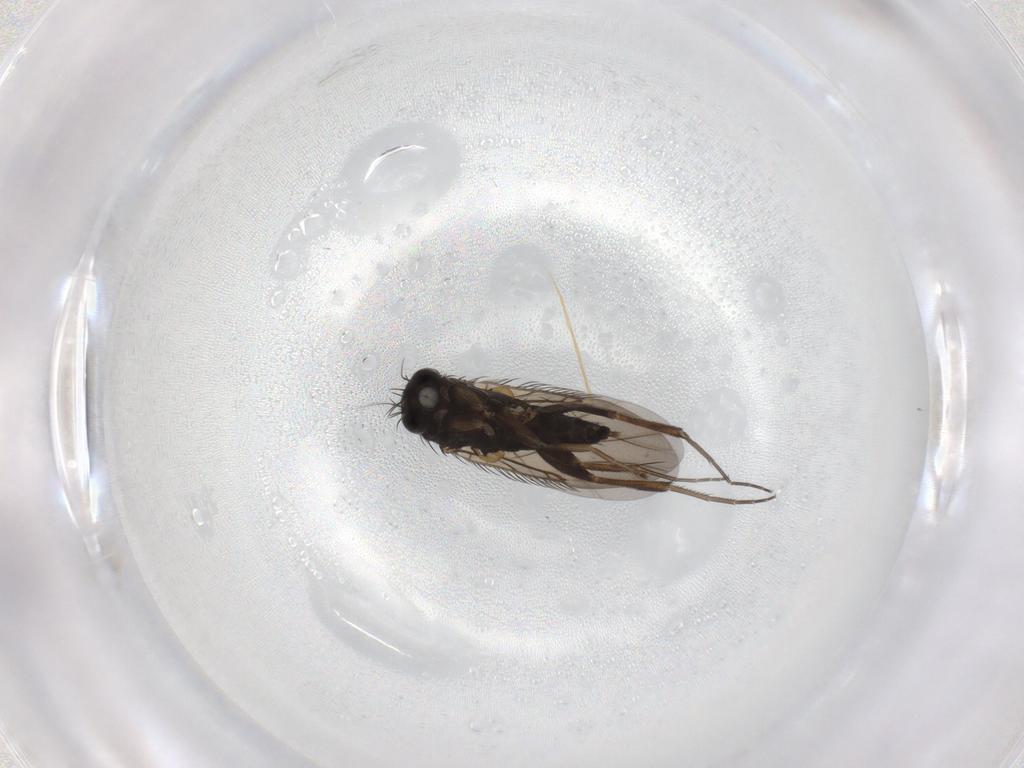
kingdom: Animalia
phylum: Arthropoda
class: Insecta
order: Diptera
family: Phoridae
